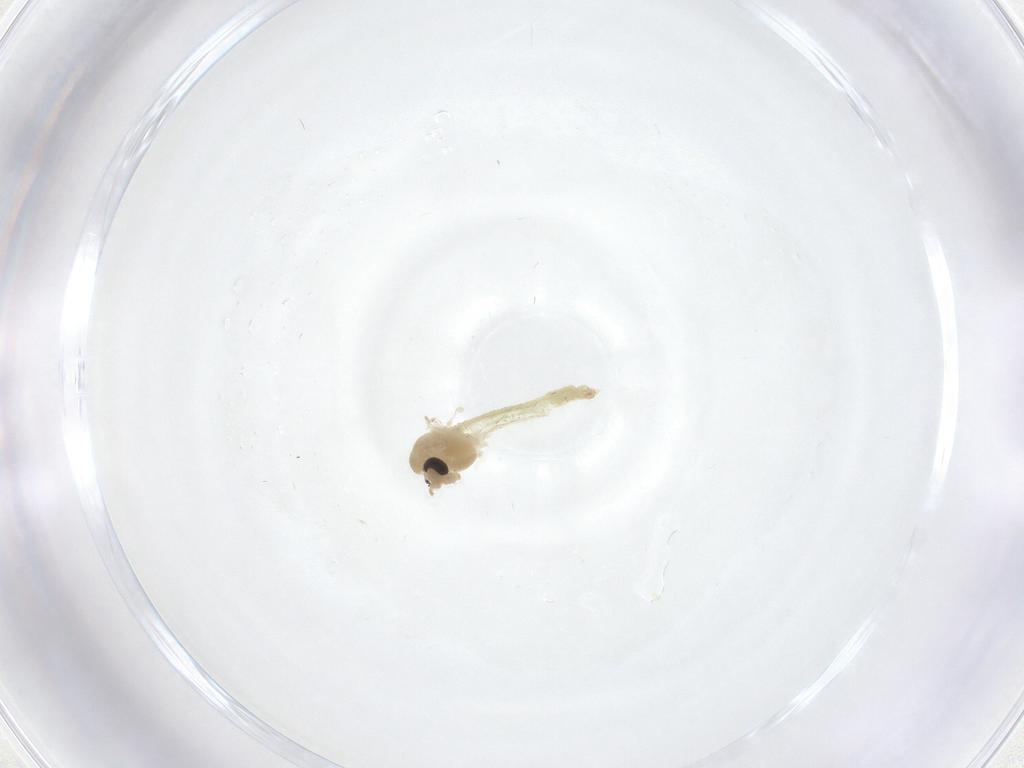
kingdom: Animalia
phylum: Arthropoda
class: Insecta
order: Diptera
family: Chironomidae
